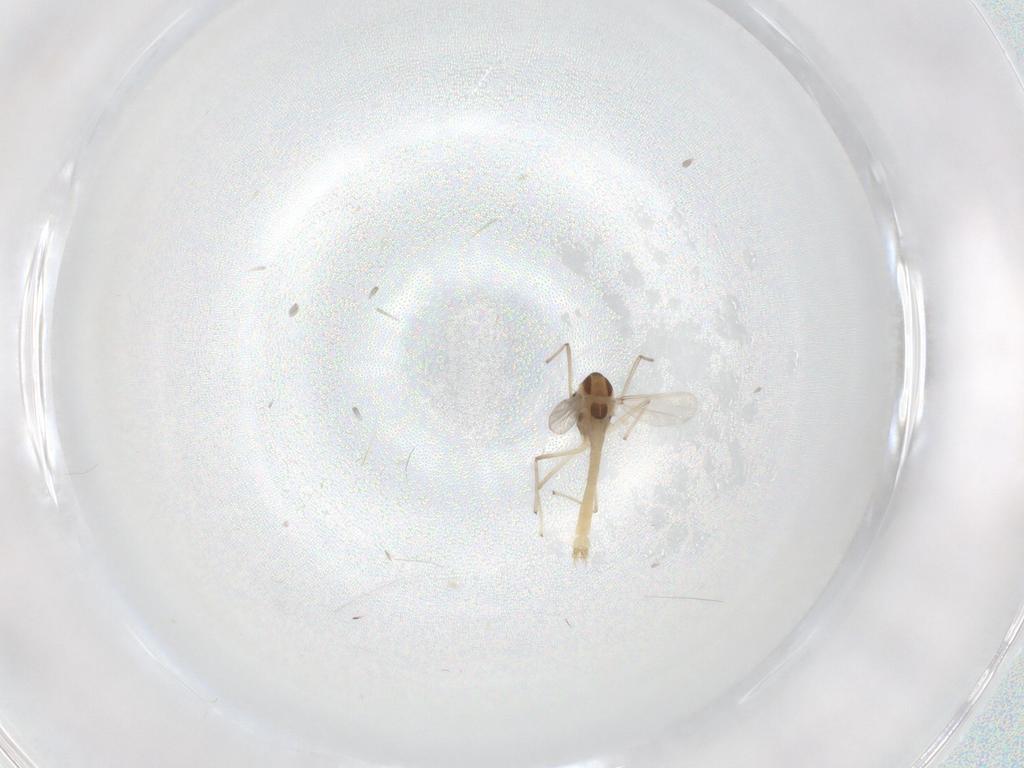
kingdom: Animalia
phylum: Arthropoda
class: Insecta
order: Diptera
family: Chironomidae
